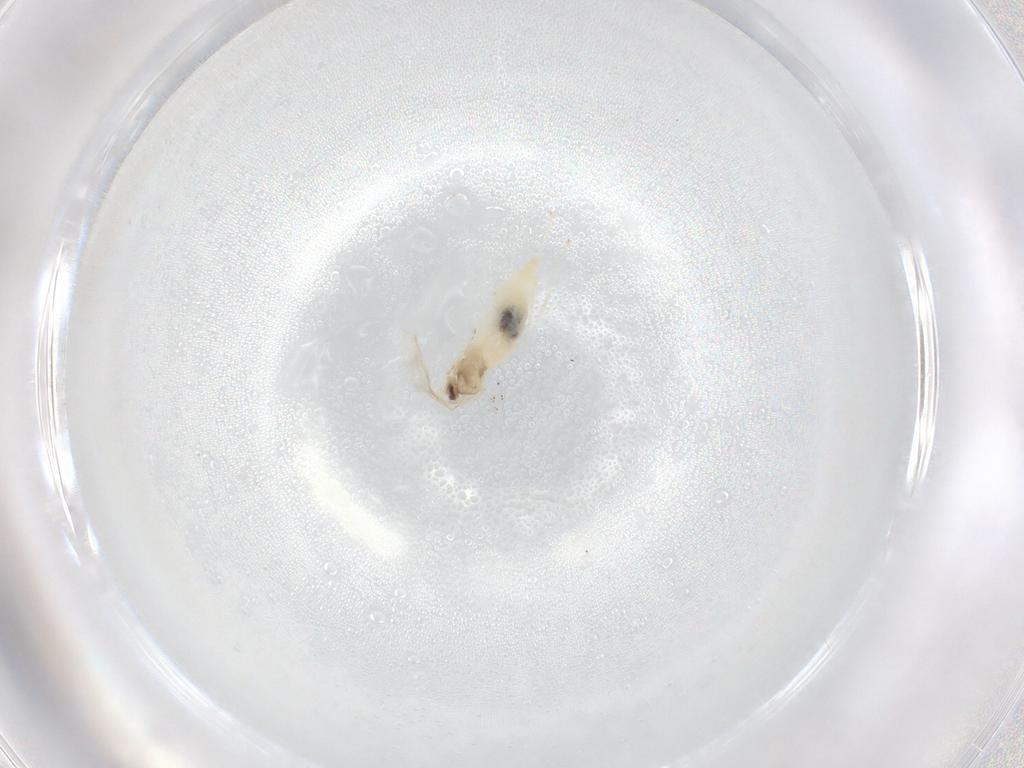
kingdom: Animalia
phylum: Arthropoda
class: Insecta
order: Diptera
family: Cecidomyiidae
